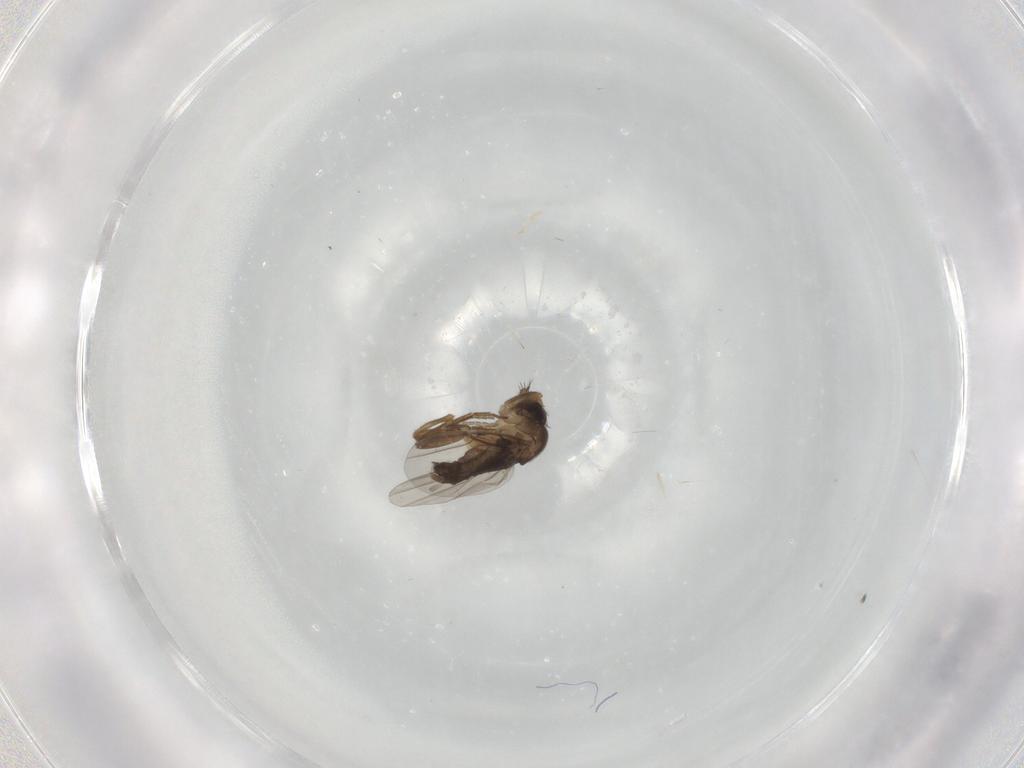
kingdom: Animalia
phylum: Arthropoda
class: Insecta
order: Diptera
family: Phoridae
